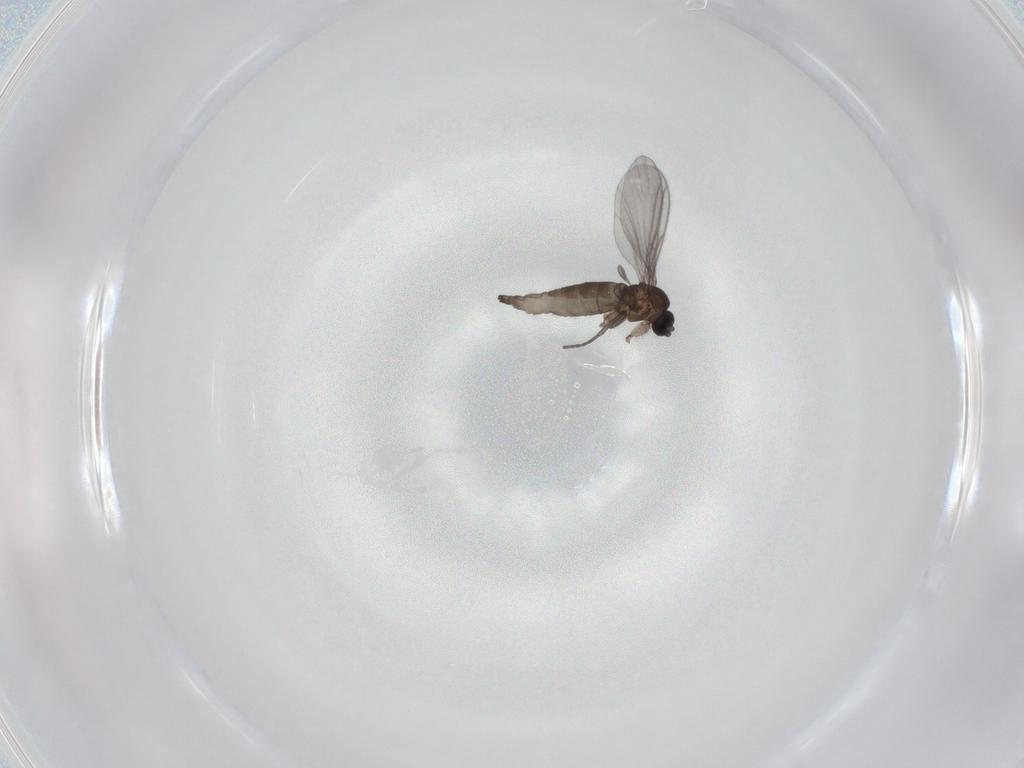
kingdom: Animalia
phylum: Arthropoda
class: Insecta
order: Diptera
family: Sciaridae
